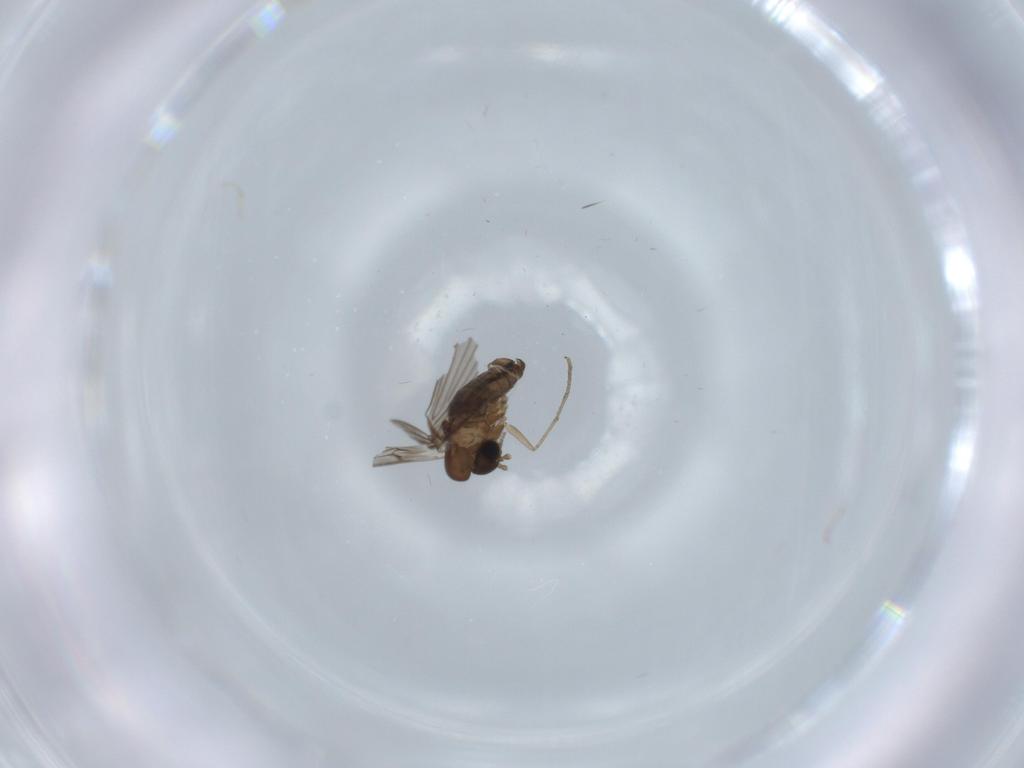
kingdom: Animalia
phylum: Arthropoda
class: Insecta
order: Diptera
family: Psychodidae
